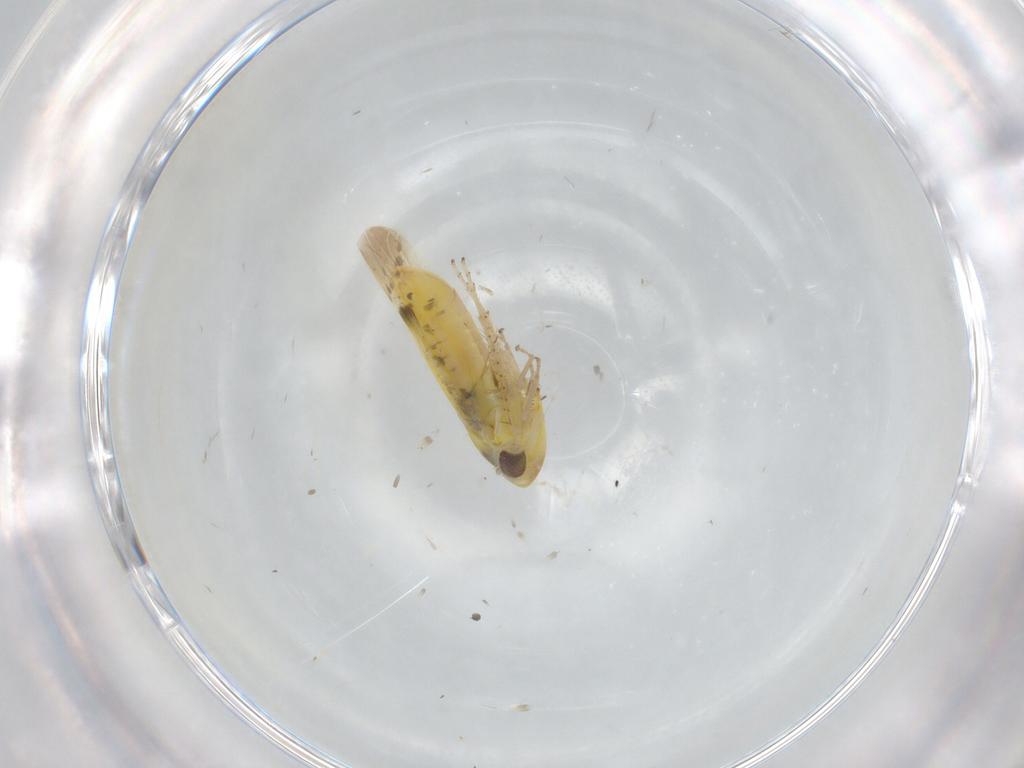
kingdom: Animalia
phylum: Arthropoda
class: Insecta
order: Hemiptera
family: Cicadellidae
